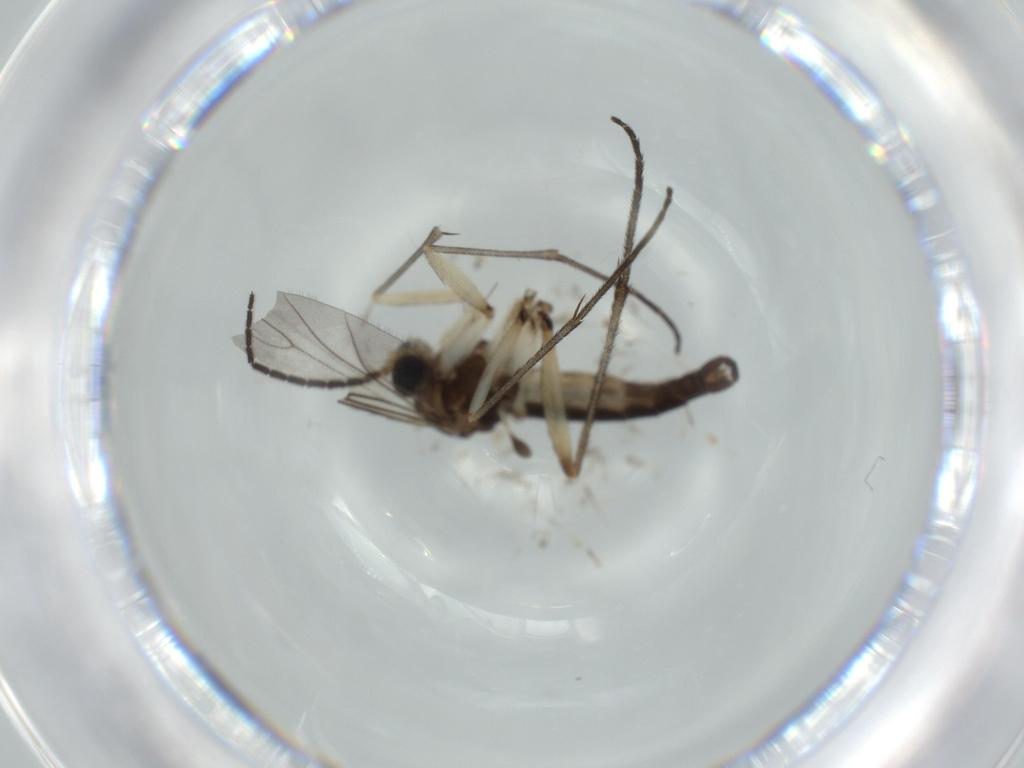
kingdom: Animalia
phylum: Arthropoda
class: Insecta
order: Diptera
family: Sciaridae
